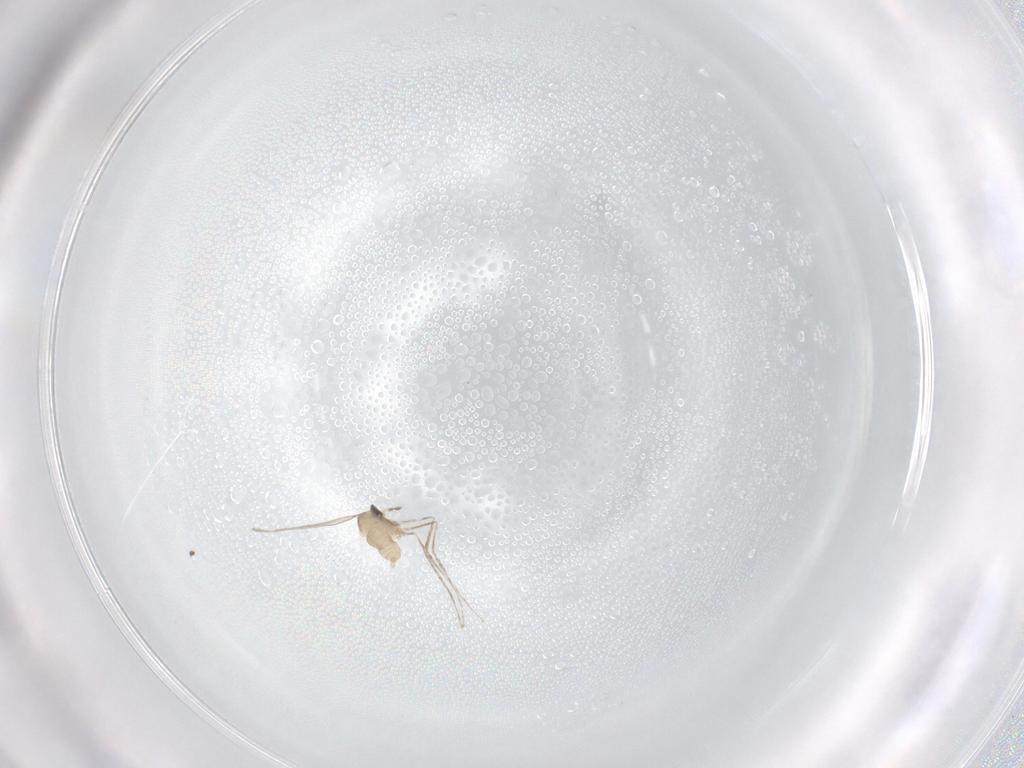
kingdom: Animalia
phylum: Arthropoda
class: Insecta
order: Diptera
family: Cecidomyiidae
